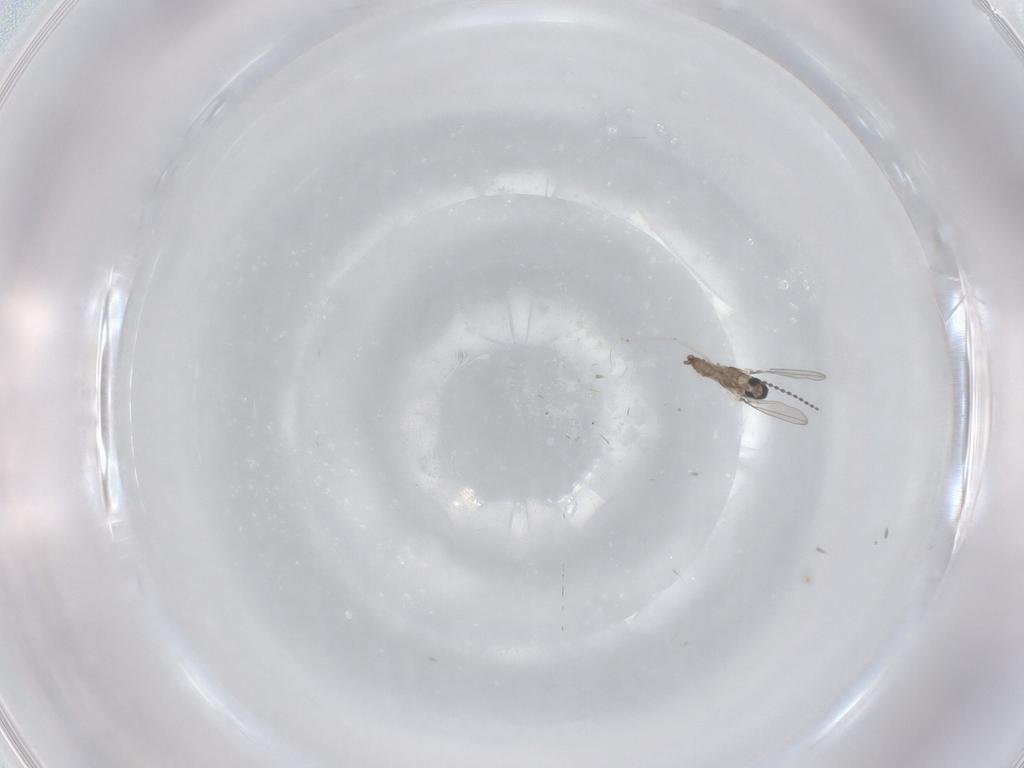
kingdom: Animalia
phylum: Arthropoda
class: Insecta
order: Diptera
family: Cecidomyiidae
